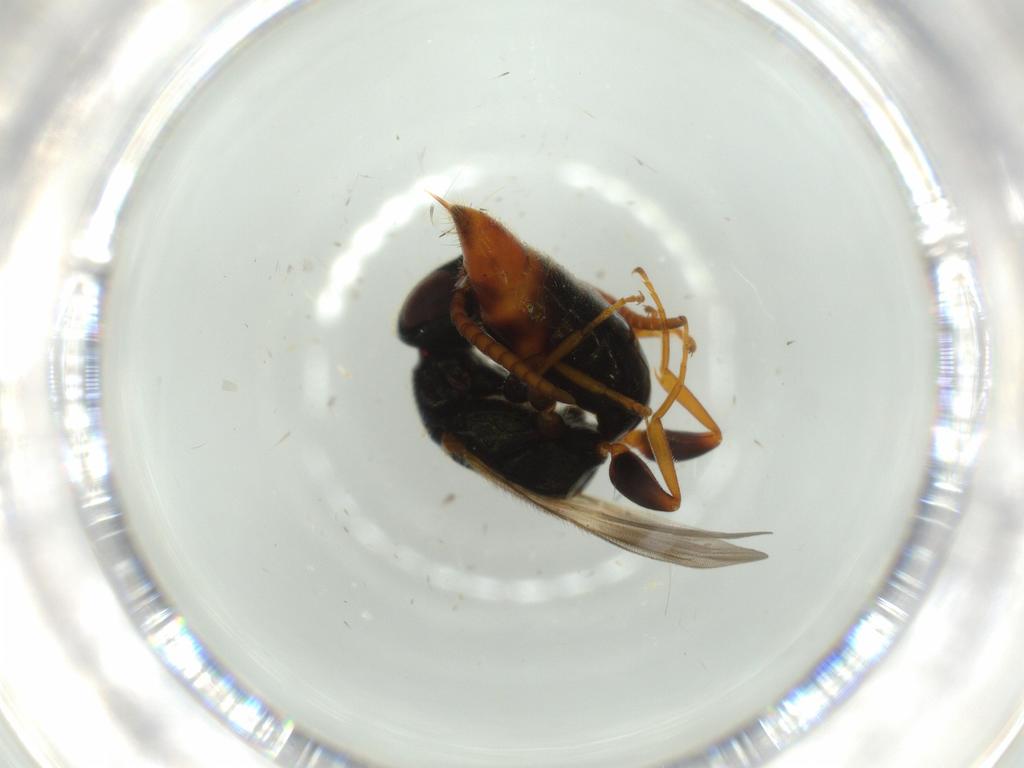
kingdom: Animalia
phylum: Arthropoda
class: Insecta
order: Hymenoptera
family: Bethylidae
